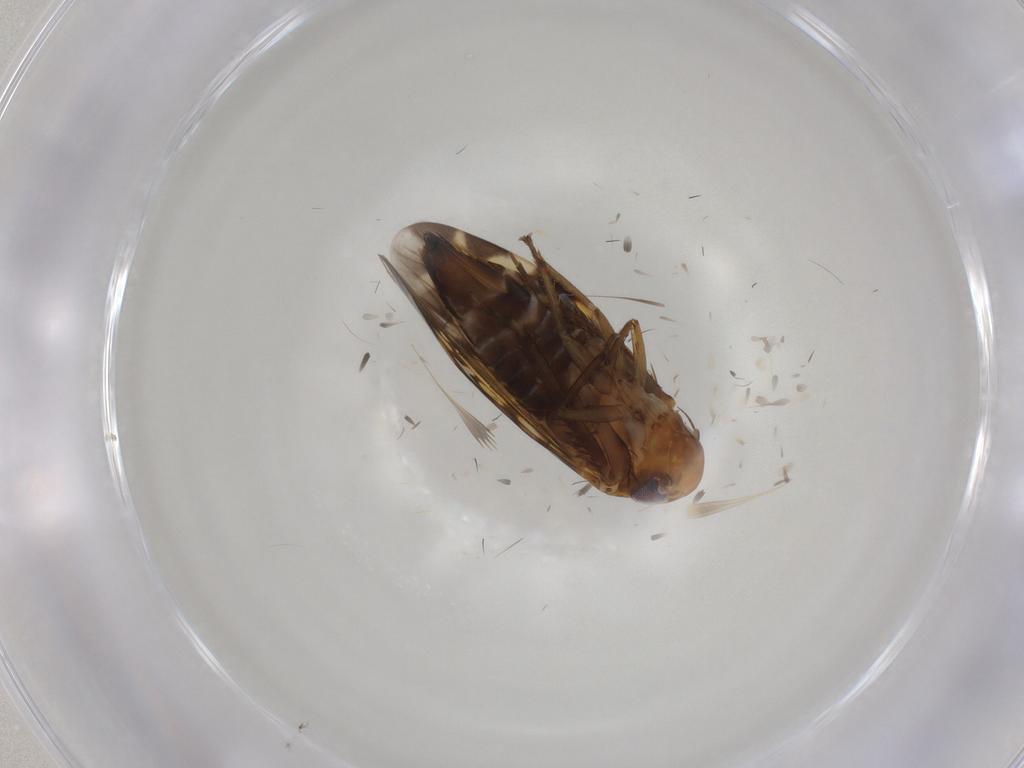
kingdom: Animalia
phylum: Arthropoda
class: Insecta
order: Hemiptera
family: Cicadellidae
